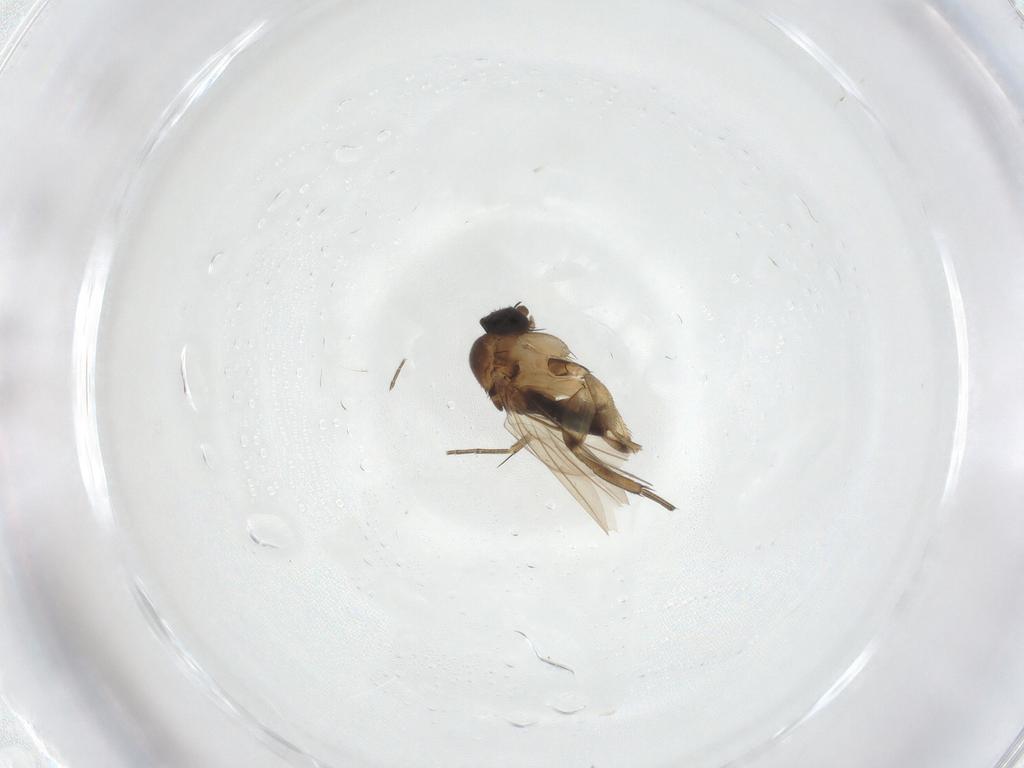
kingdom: Animalia
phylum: Arthropoda
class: Insecta
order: Diptera
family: Phoridae
